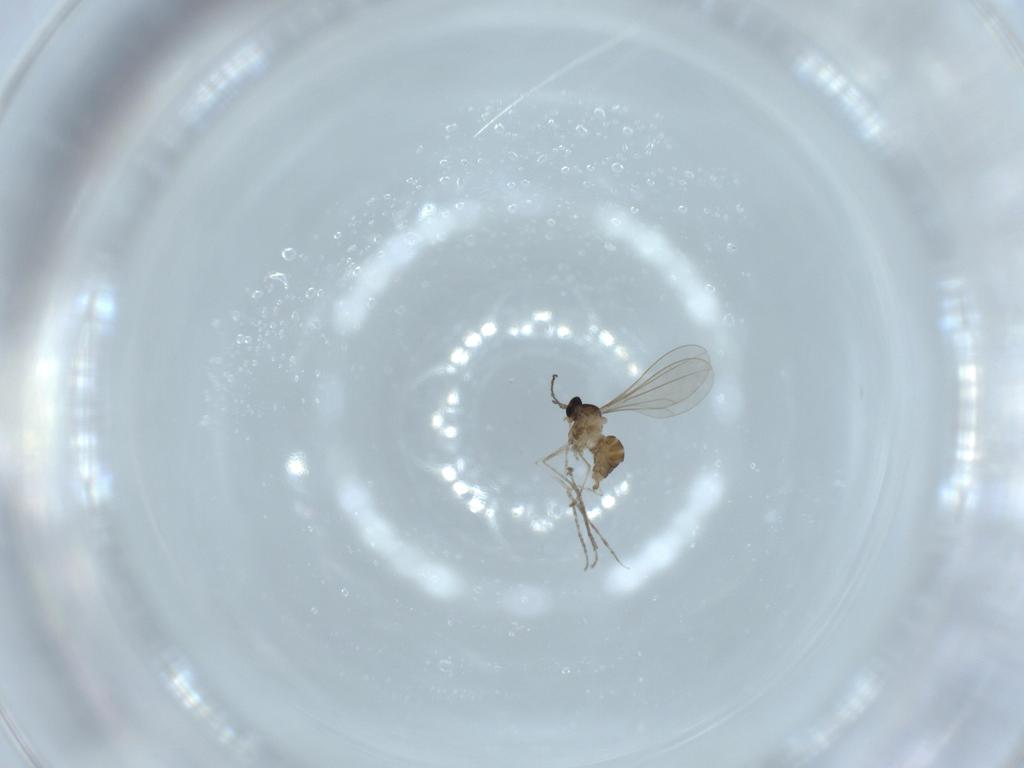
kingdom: Animalia
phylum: Arthropoda
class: Insecta
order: Diptera
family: Cecidomyiidae
